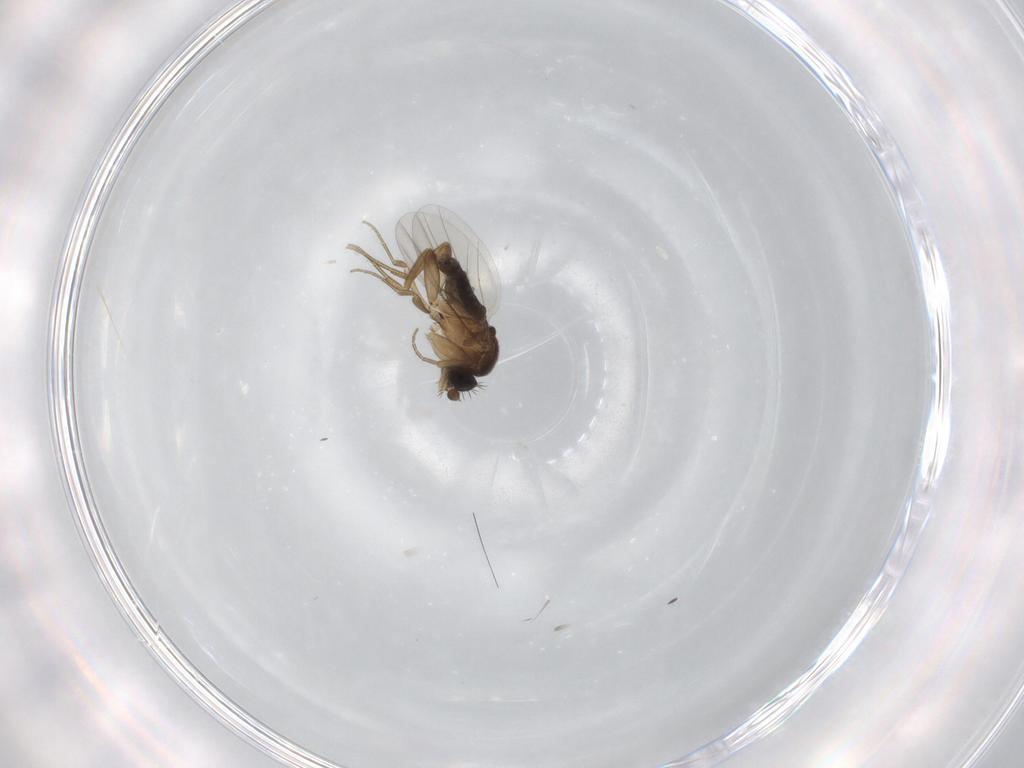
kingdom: Animalia
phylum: Arthropoda
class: Insecta
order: Diptera
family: Phoridae
